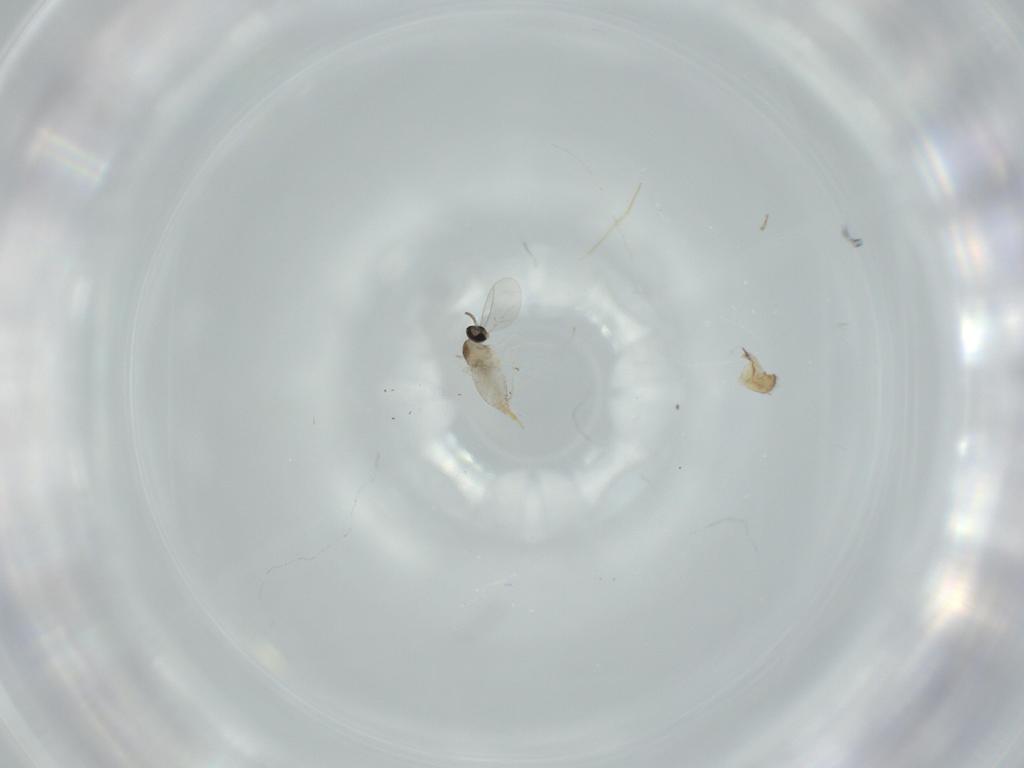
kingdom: Animalia
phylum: Arthropoda
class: Insecta
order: Diptera
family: Cecidomyiidae
